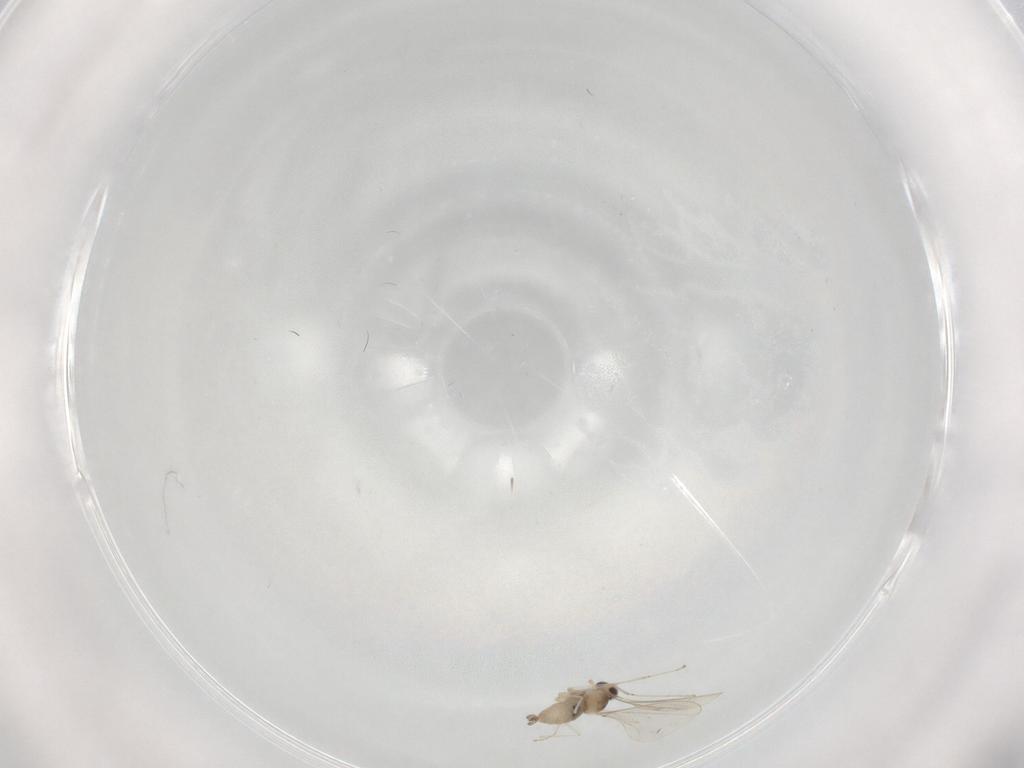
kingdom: Animalia
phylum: Arthropoda
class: Insecta
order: Diptera
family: Cecidomyiidae
